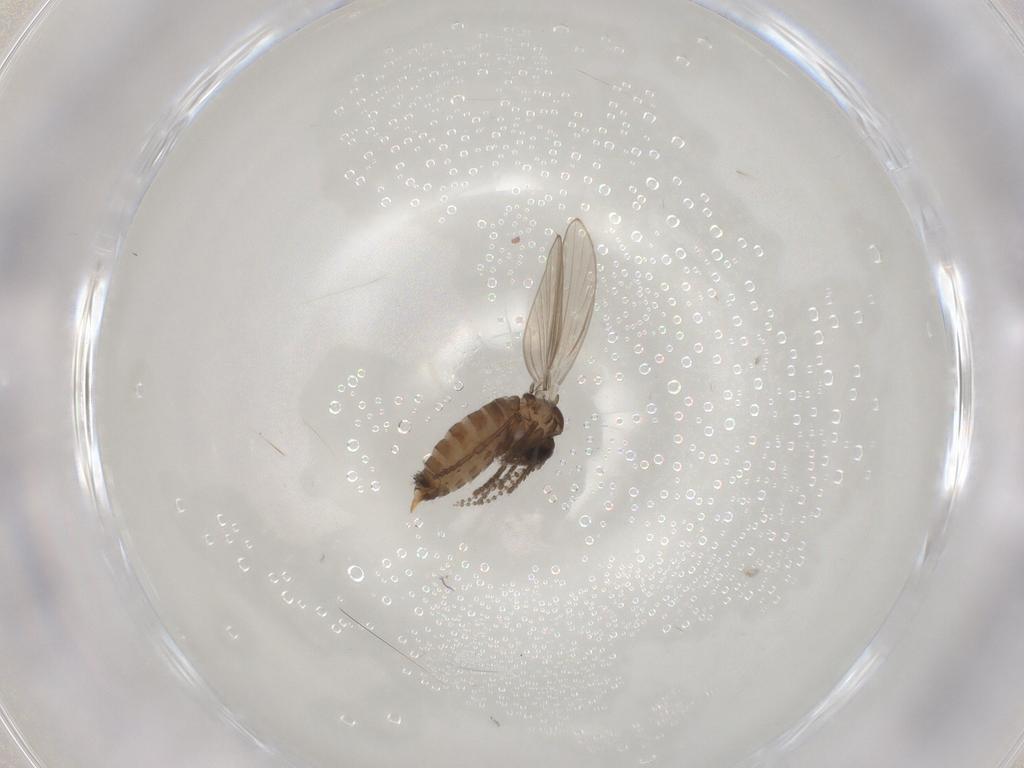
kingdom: Animalia
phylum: Arthropoda
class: Insecta
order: Diptera
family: Psychodidae
